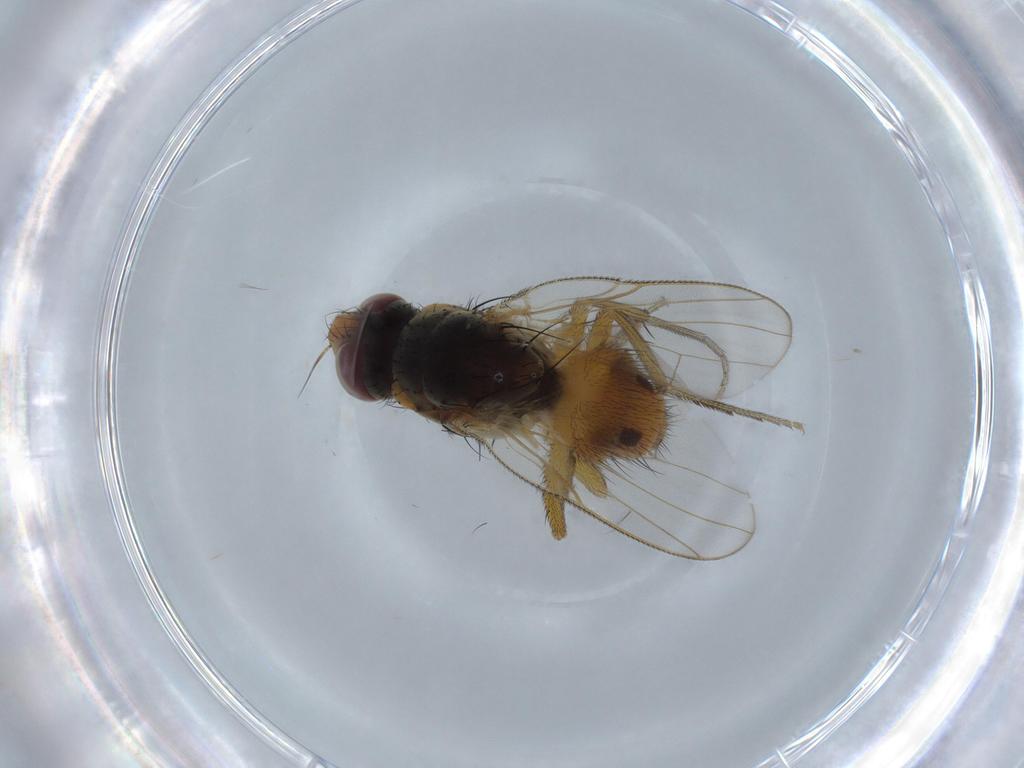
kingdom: Animalia
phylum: Arthropoda
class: Insecta
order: Diptera
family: Muscidae
